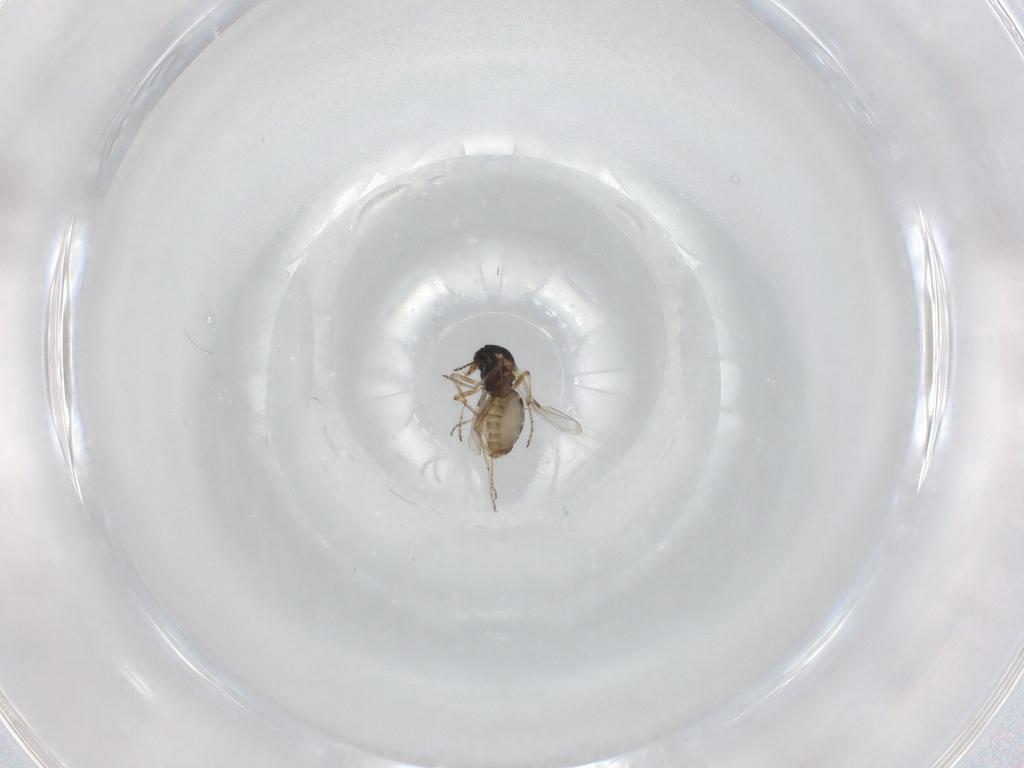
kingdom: Animalia
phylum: Arthropoda
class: Insecta
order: Diptera
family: Ceratopogonidae
